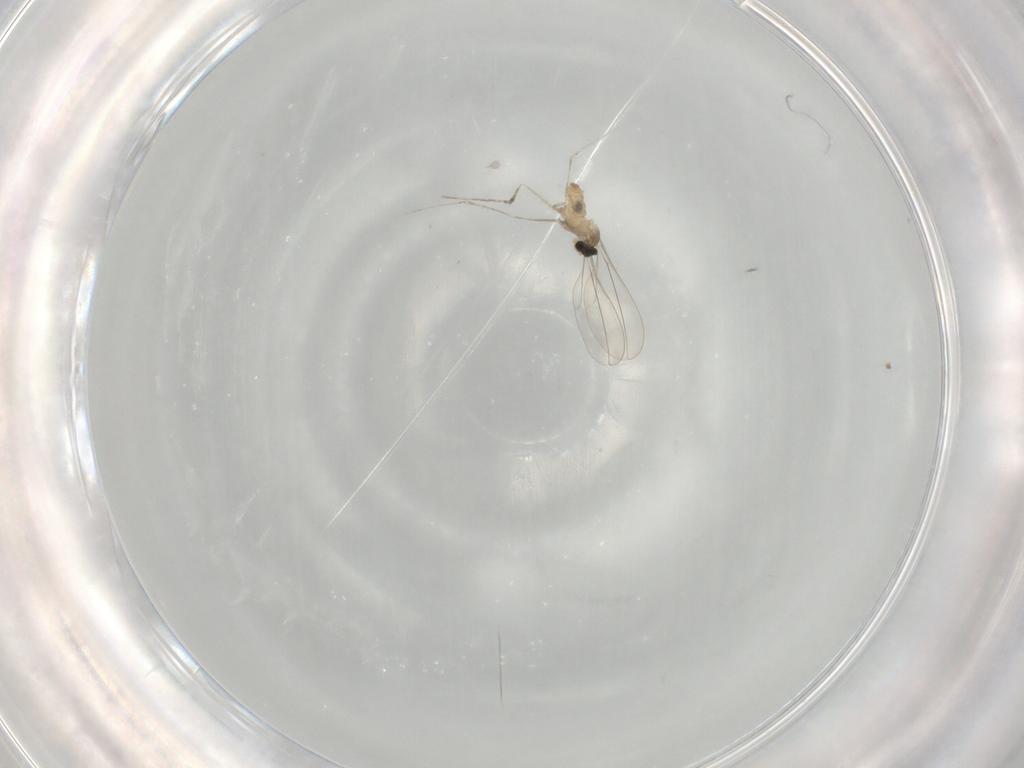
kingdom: Animalia
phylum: Arthropoda
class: Insecta
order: Diptera
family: Cecidomyiidae
